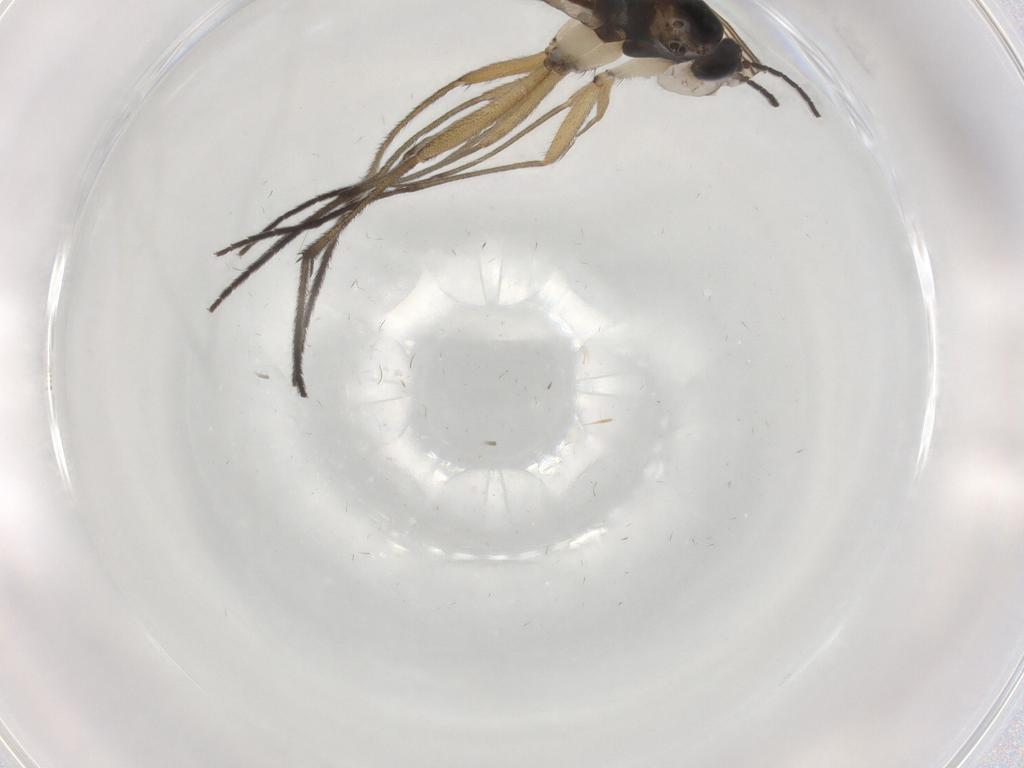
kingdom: Animalia
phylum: Arthropoda
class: Insecta
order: Diptera
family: Sciaridae
